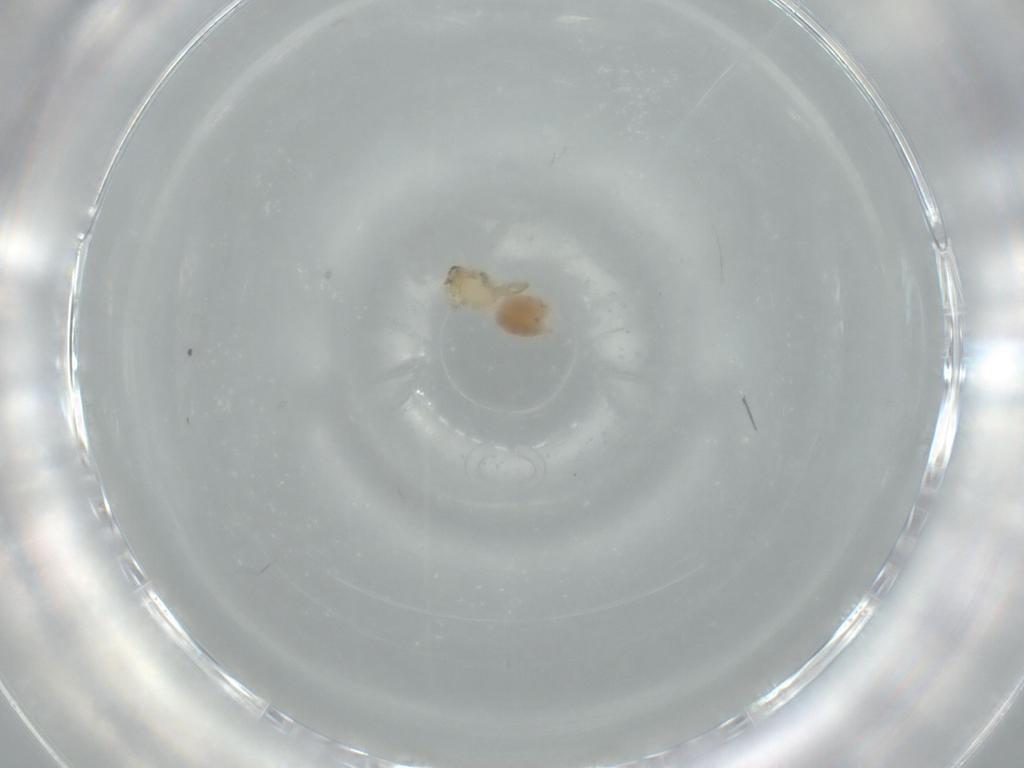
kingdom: Animalia
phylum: Arthropoda
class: Arachnida
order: Araneae
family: Oonopidae
